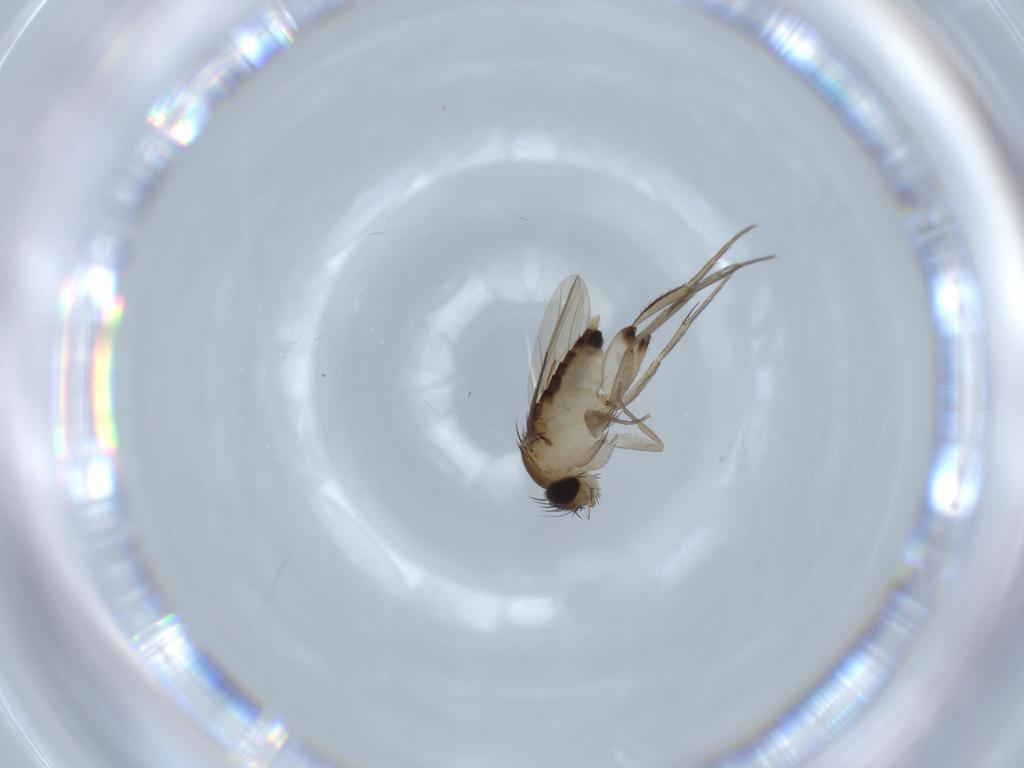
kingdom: Animalia
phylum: Arthropoda
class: Insecta
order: Diptera
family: Phoridae
